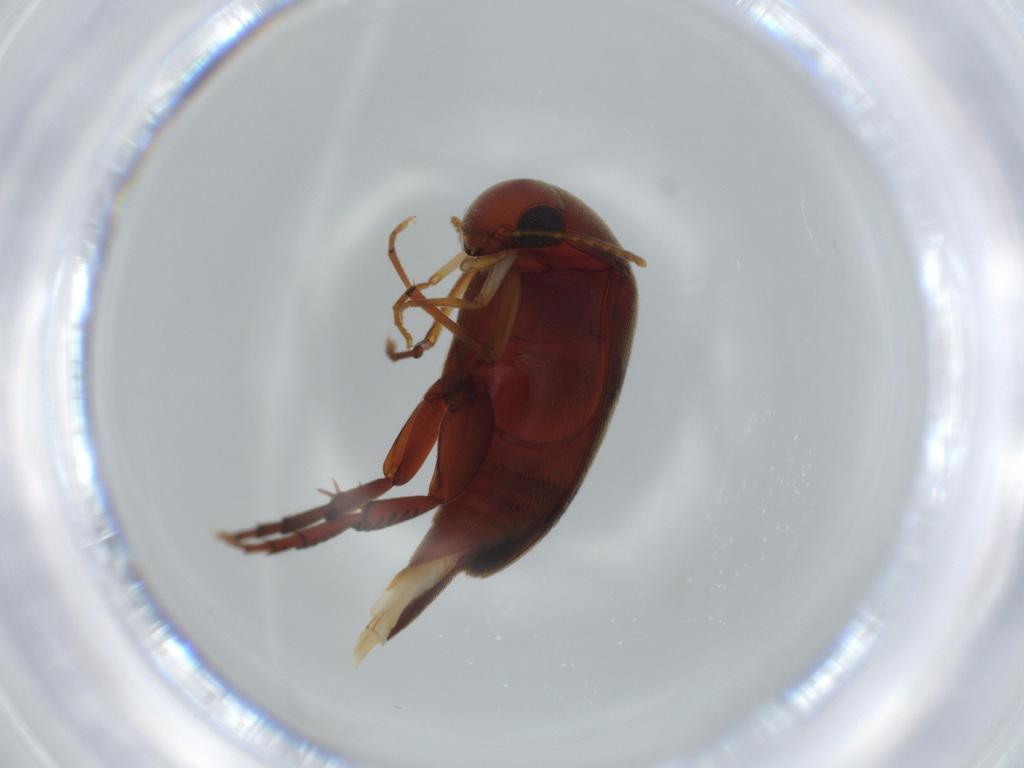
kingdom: Animalia
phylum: Arthropoda
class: Insecta
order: Coleoptera
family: Mordellidae
